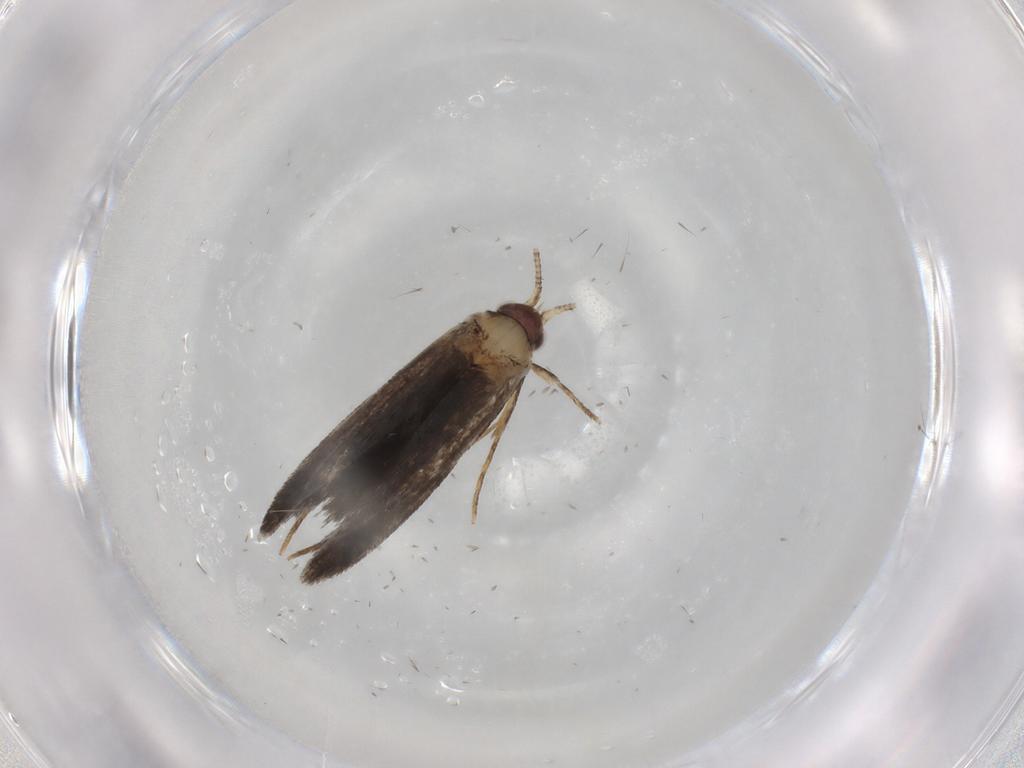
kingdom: Animalia
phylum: Arthropoda
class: Insecta
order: Lepidoptera
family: Nepticulidae
